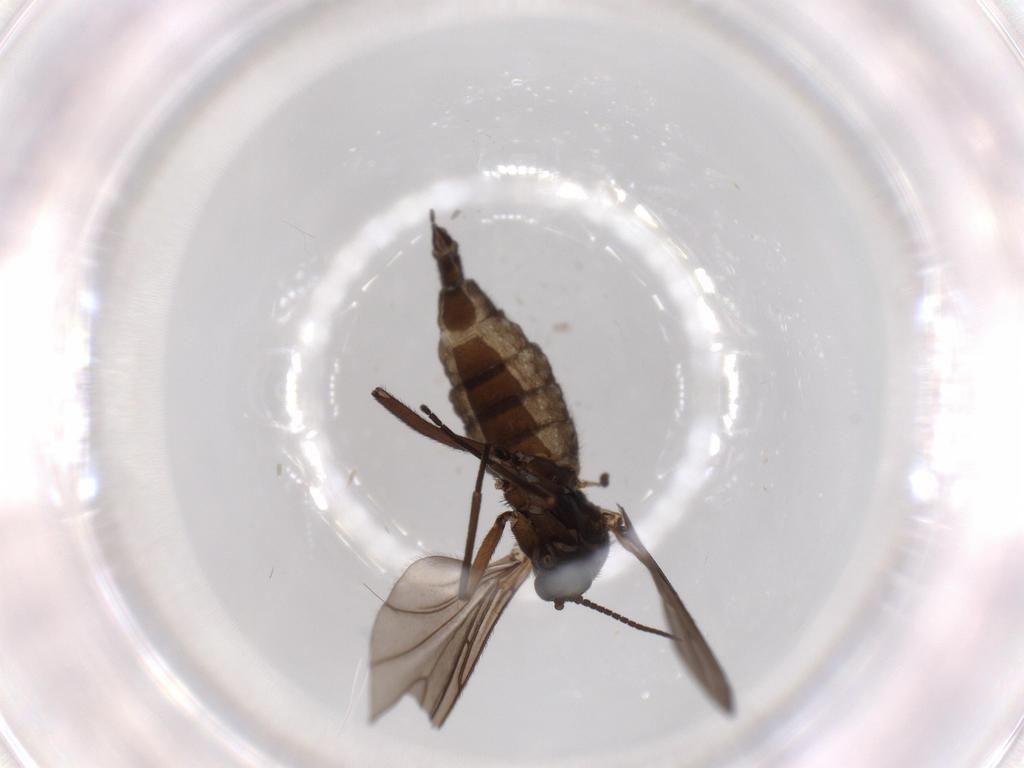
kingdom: Animalia
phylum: Arthropoda
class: Insecta
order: Diptera
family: Sciaridae
